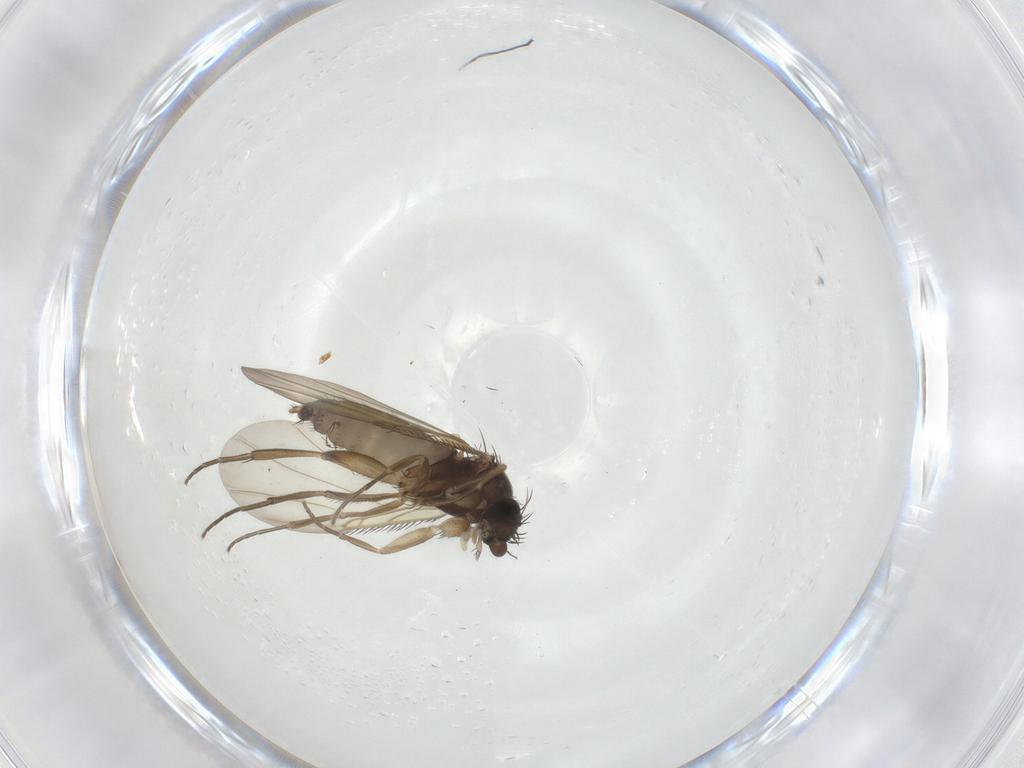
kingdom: Animalia
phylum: Arthropoda
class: Insecta
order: Diptera
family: Phoridae
